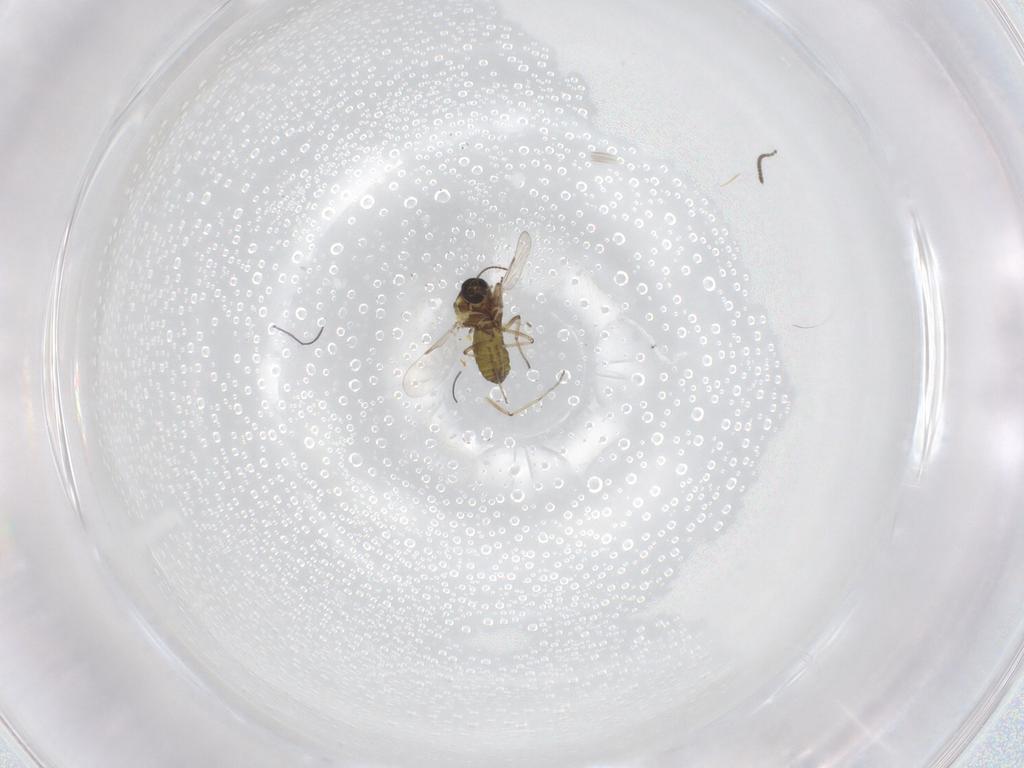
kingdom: Animalia
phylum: Arthropoda
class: Insecta
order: Diptera
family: Ceratopogonidae
